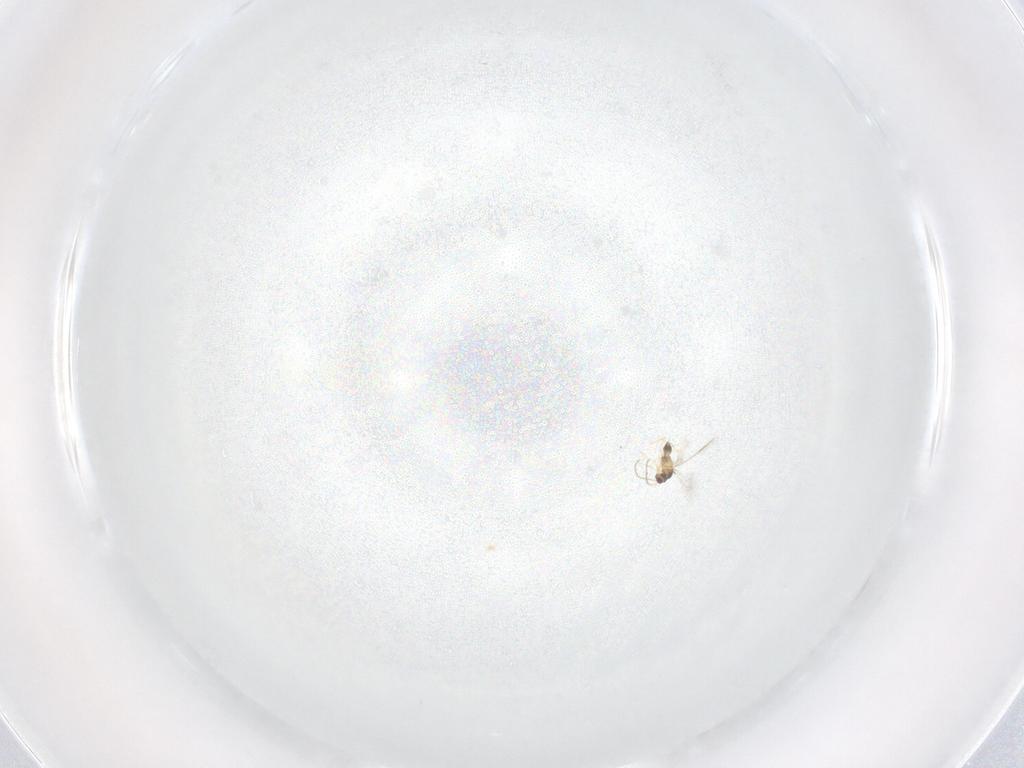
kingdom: Animalia
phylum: Arthropoda
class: Insecta
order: Hymenoptera
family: Mymaridae
